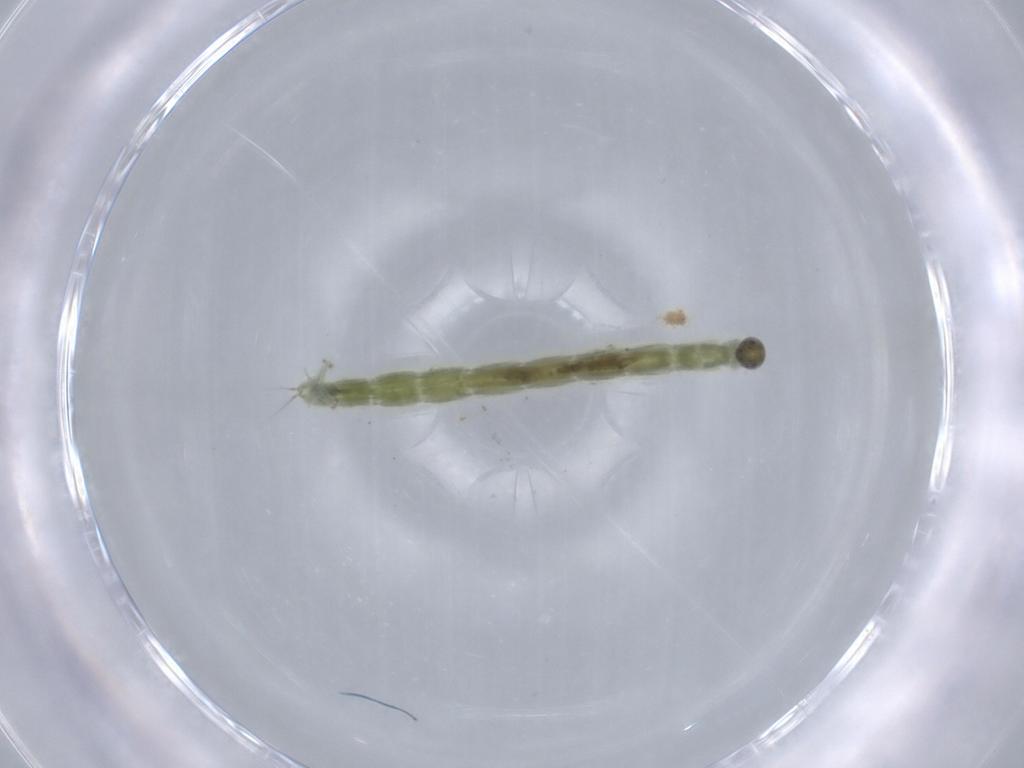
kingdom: Animalia
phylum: Arthropoda
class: Insecta
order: Diptera
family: Chironomidae
